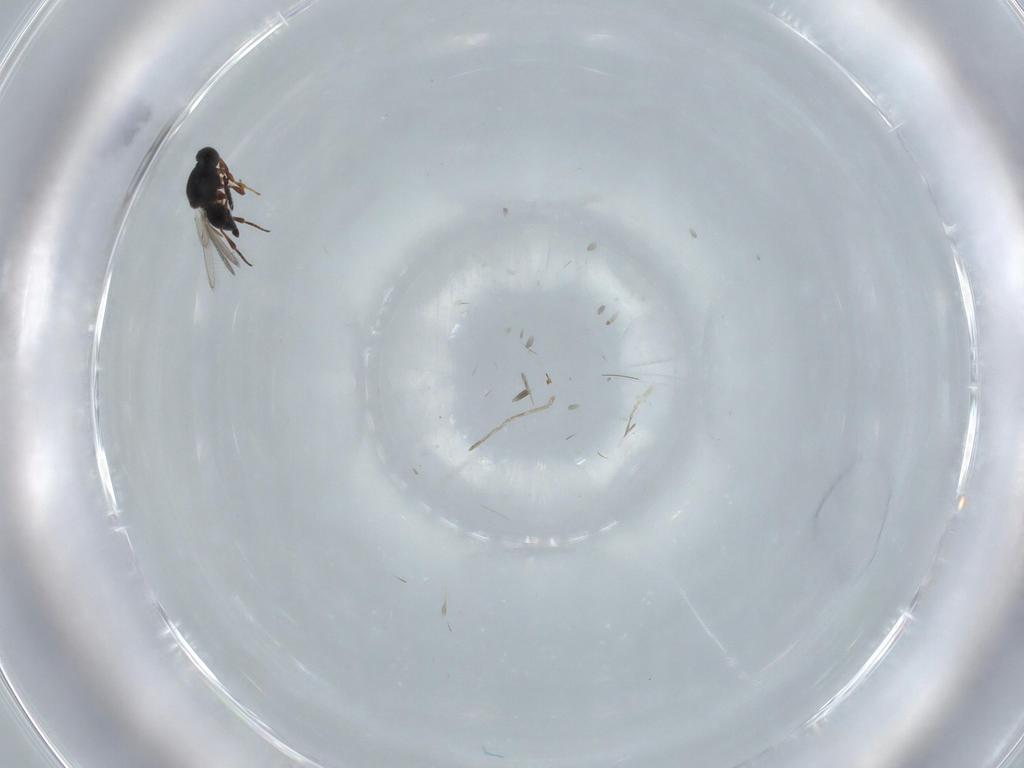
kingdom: Animalia
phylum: Arthropoda
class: Insecta
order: Hymenoptera
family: Platygastridae
